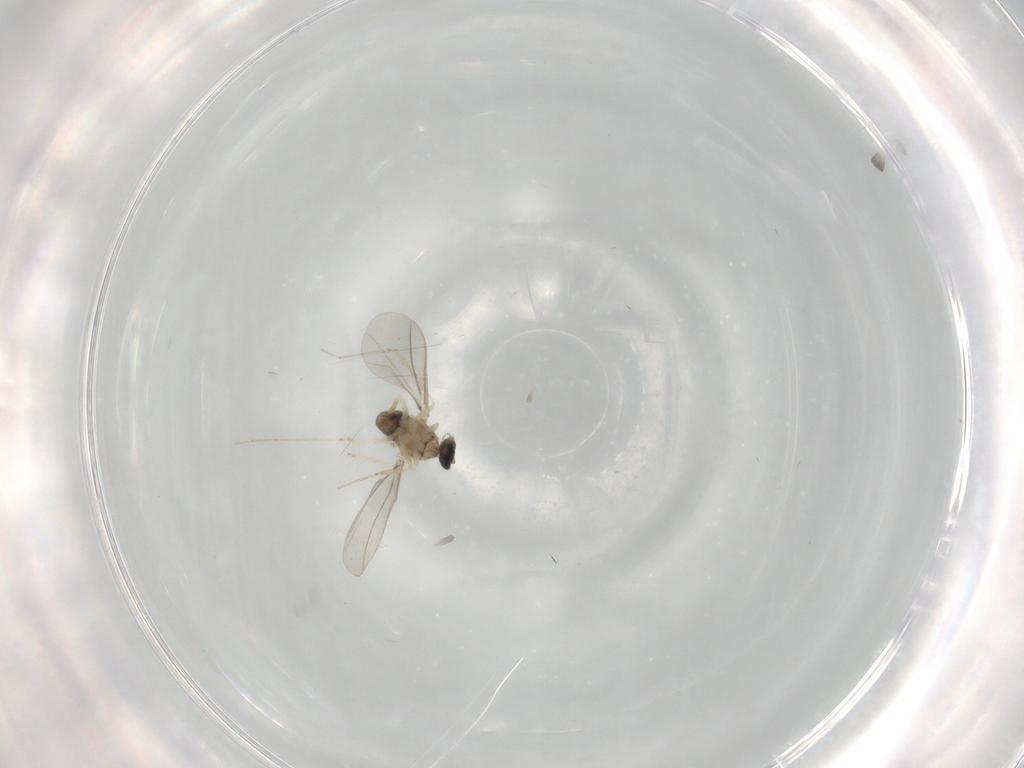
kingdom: Animalia
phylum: Arthropoda
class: Insecta
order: Diptera
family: Cecidomyiidae
